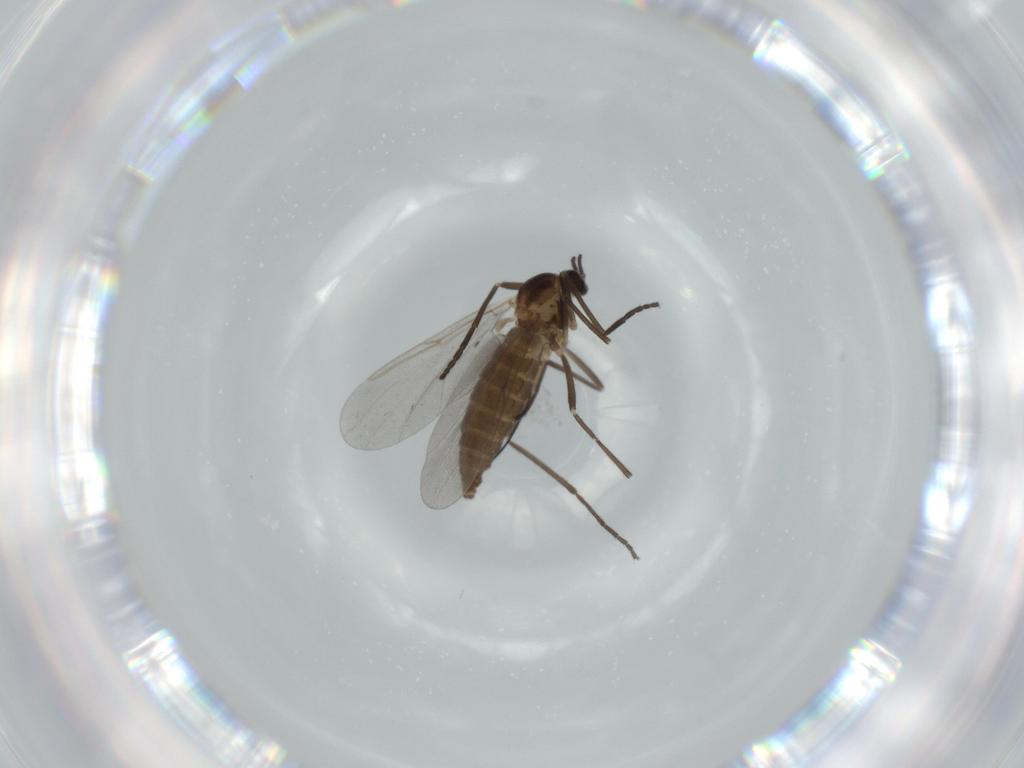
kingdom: Animalia
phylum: Arthropoda
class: Insecta
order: Diptera
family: Cecidomyiidae
